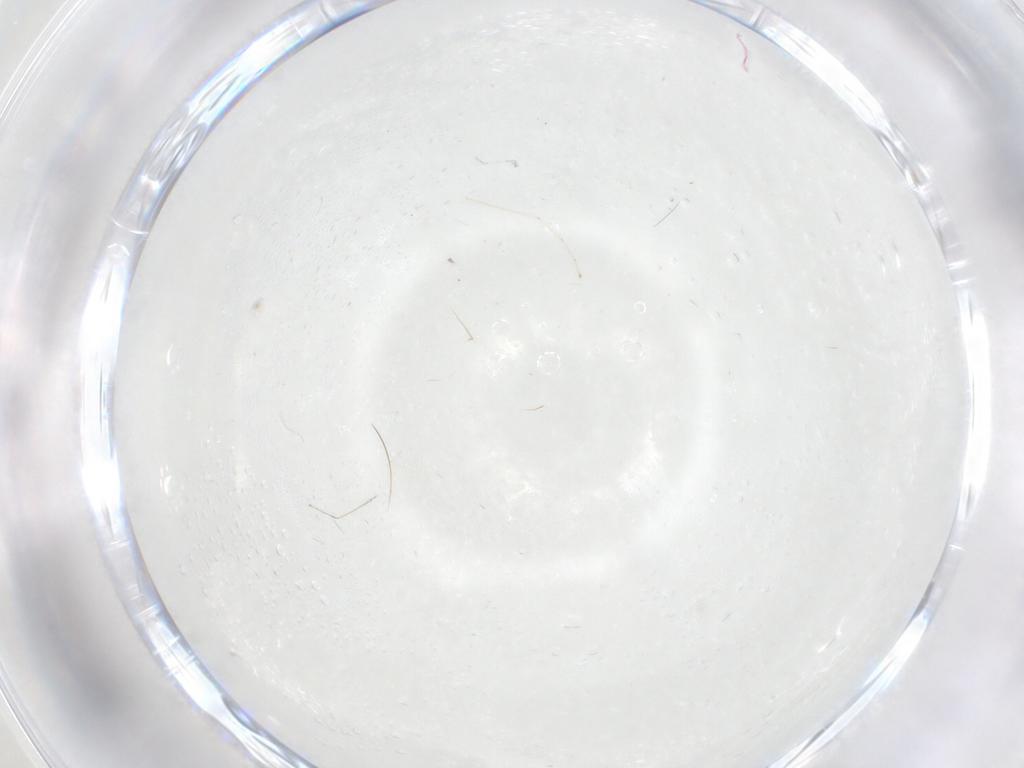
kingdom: Animalia
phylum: Arthropoda
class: Insecta
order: Diptera
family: Cecidomyiidae
